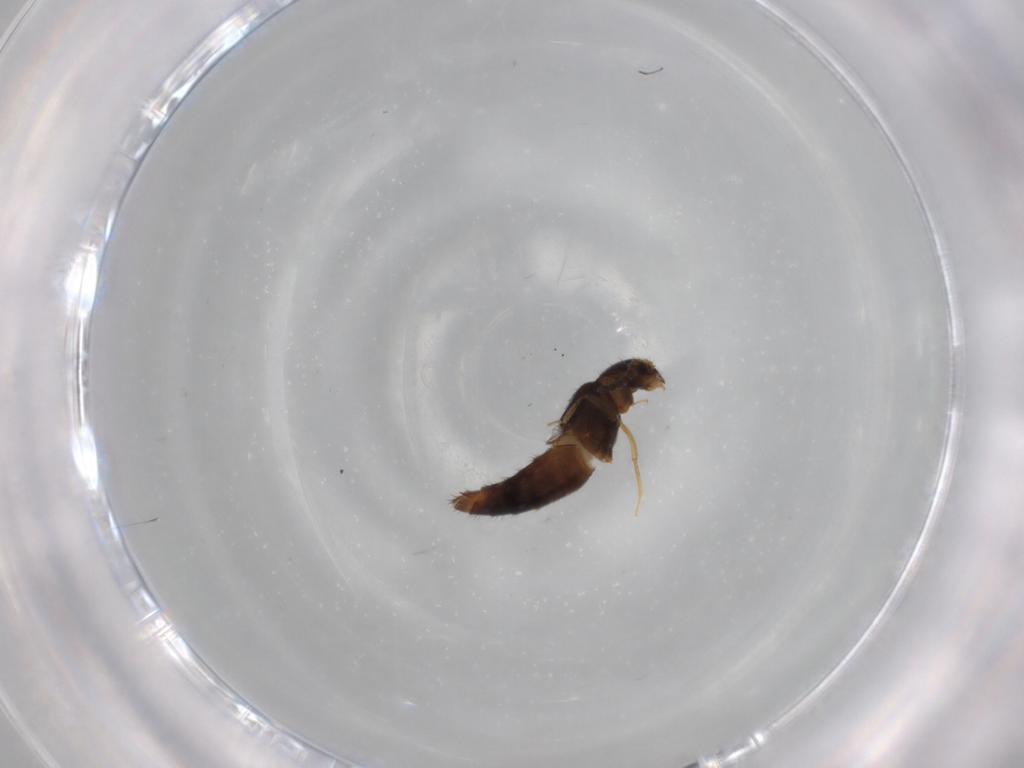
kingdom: Animalia
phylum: Arthropoda
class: Insecta
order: Coleoptera
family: Staphylinidae
